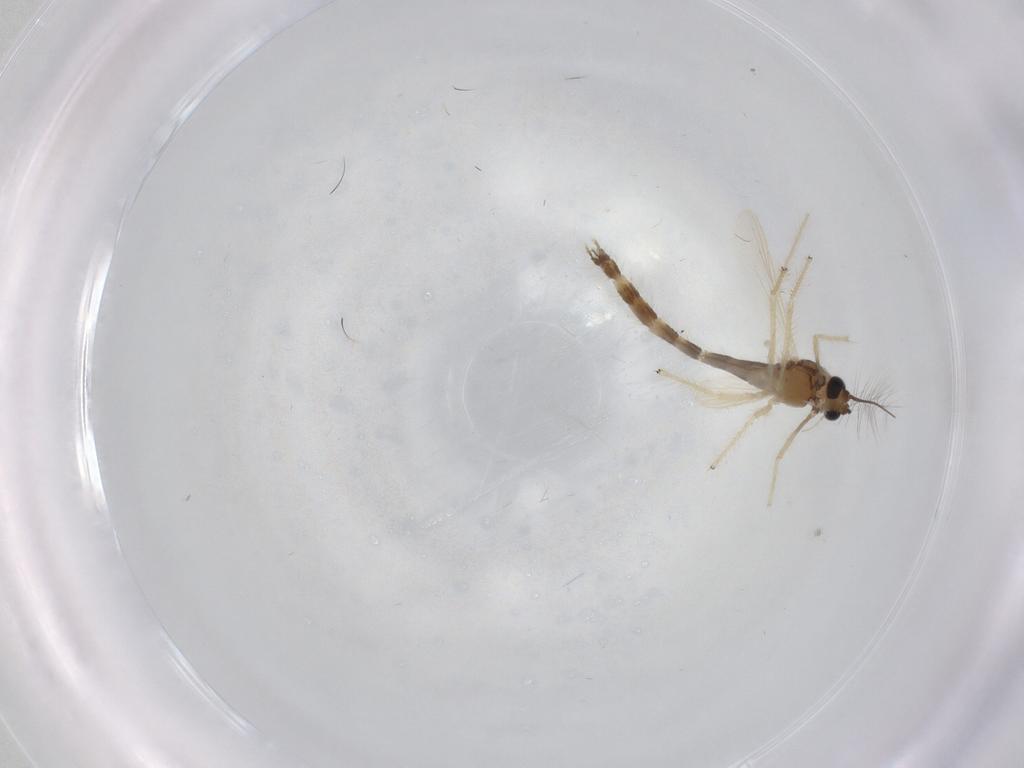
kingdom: Animalia
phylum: Arthropoda
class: Insecta
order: Diptera
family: Chironomidae
